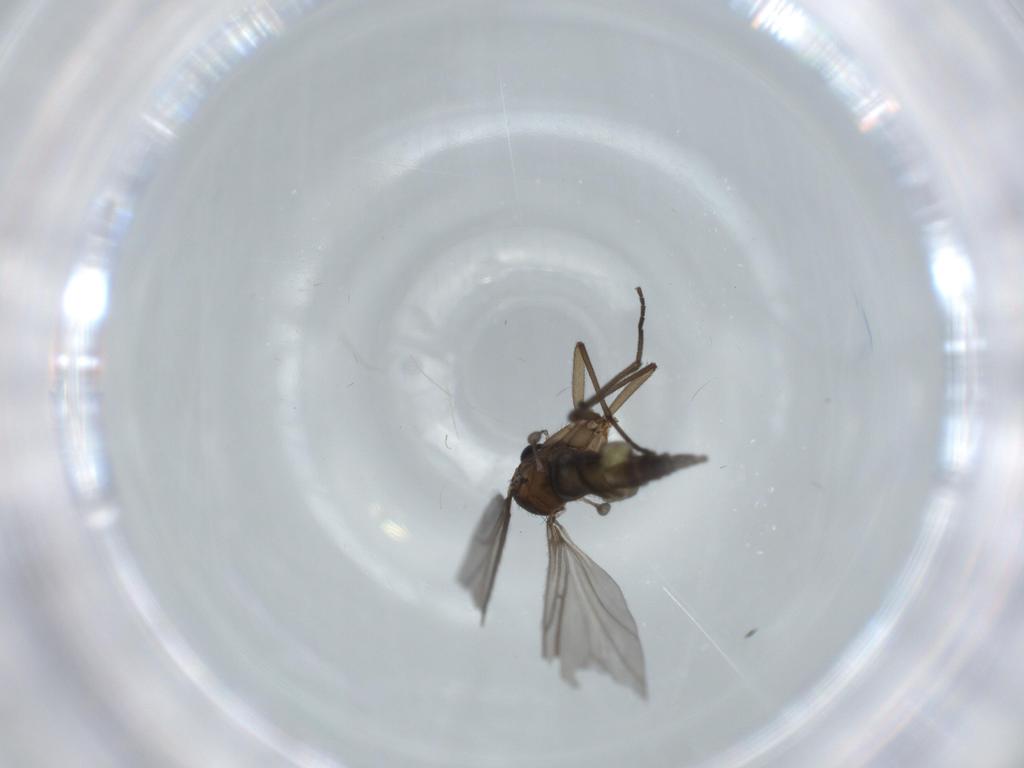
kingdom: Animalia
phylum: Arthropoda
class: Insecta
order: Diptera
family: Sciaridae
